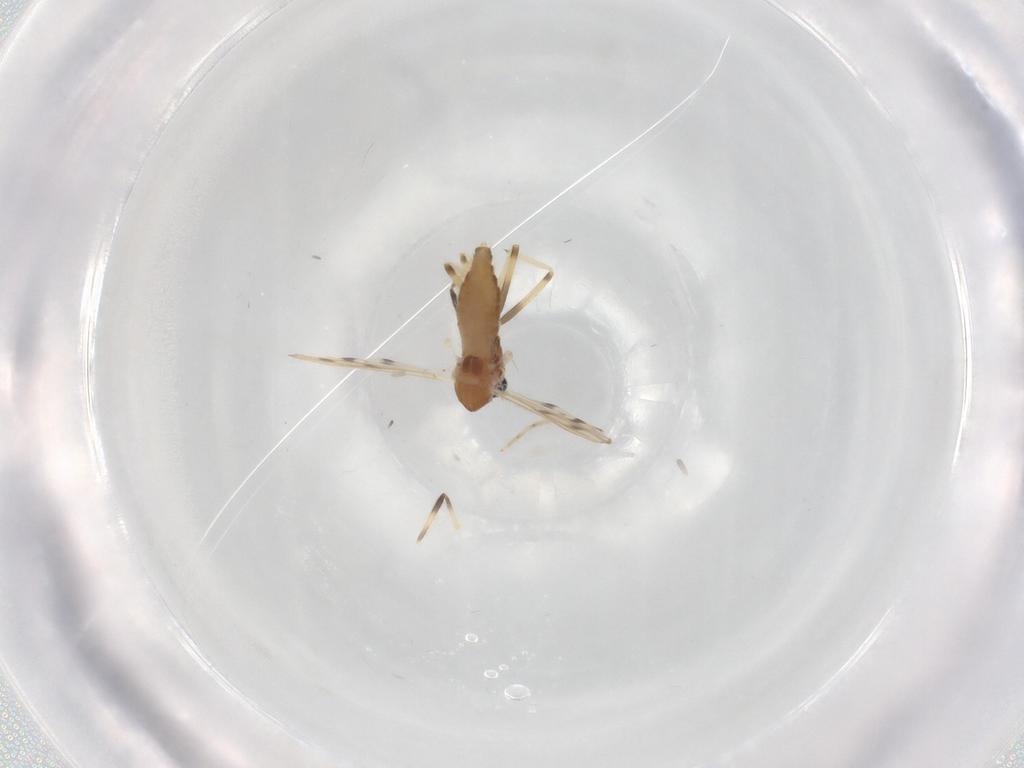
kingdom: Animalia
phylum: Arthropoda
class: Insecta
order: Diptera
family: Chironomidae
